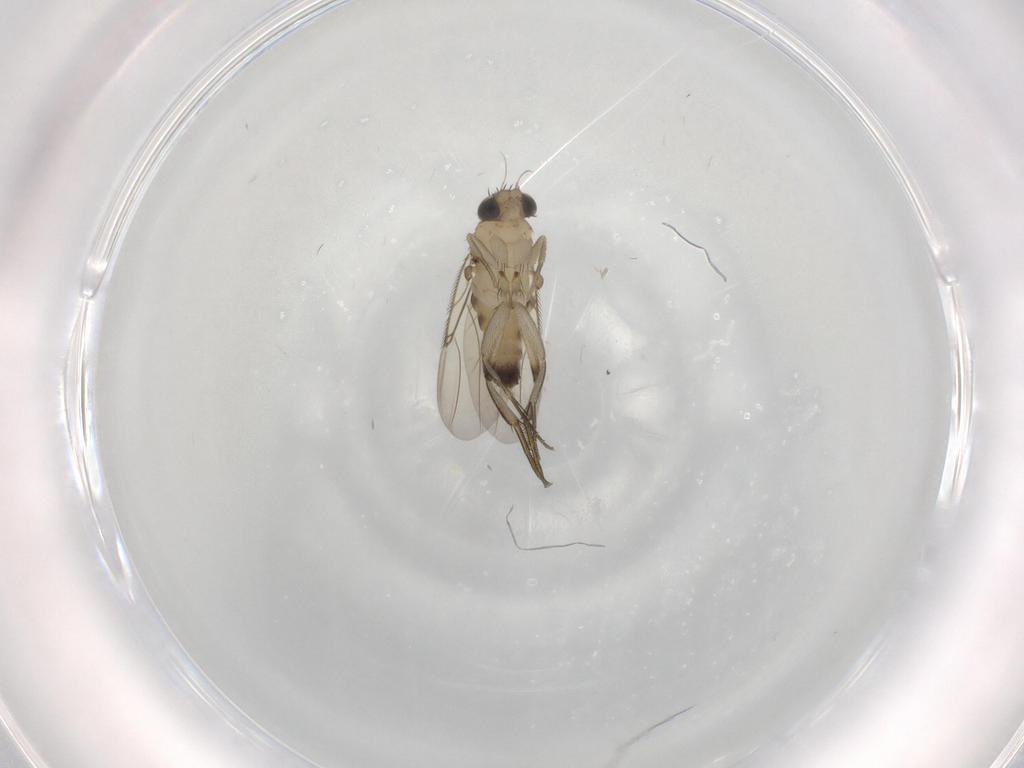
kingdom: Animalia
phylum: Arthropoda
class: Insecta
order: Diptera
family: Phoridae
